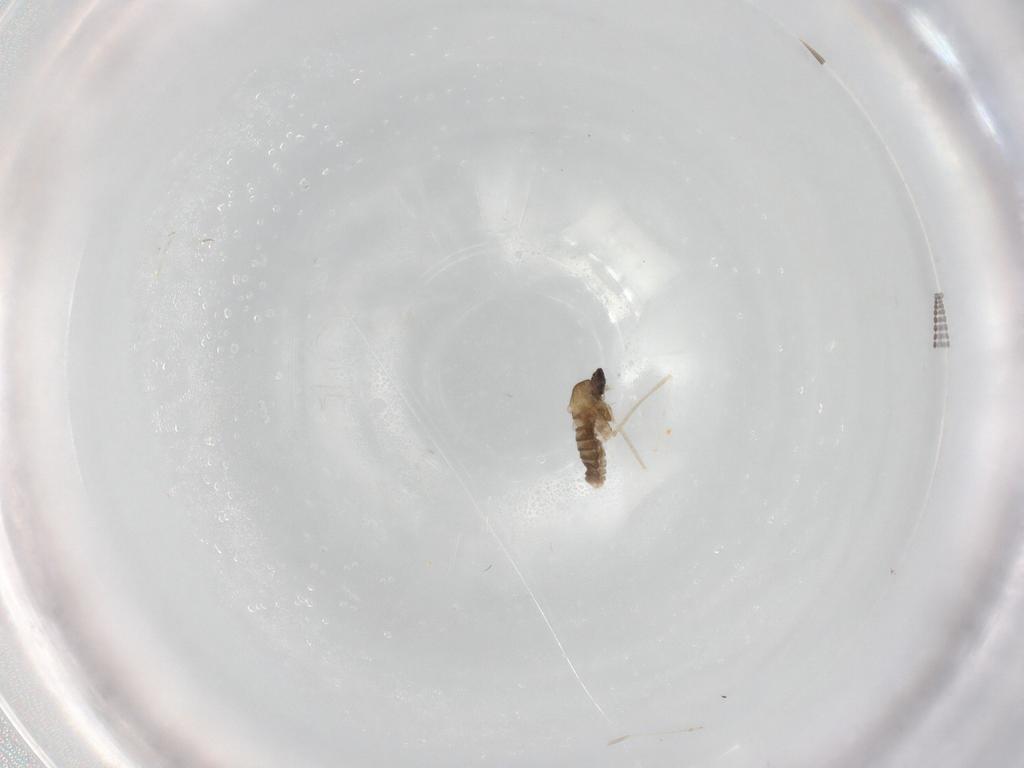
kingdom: Animalia
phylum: Arthropoda
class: Insecta
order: Diptera
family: Cecidomyiidae
